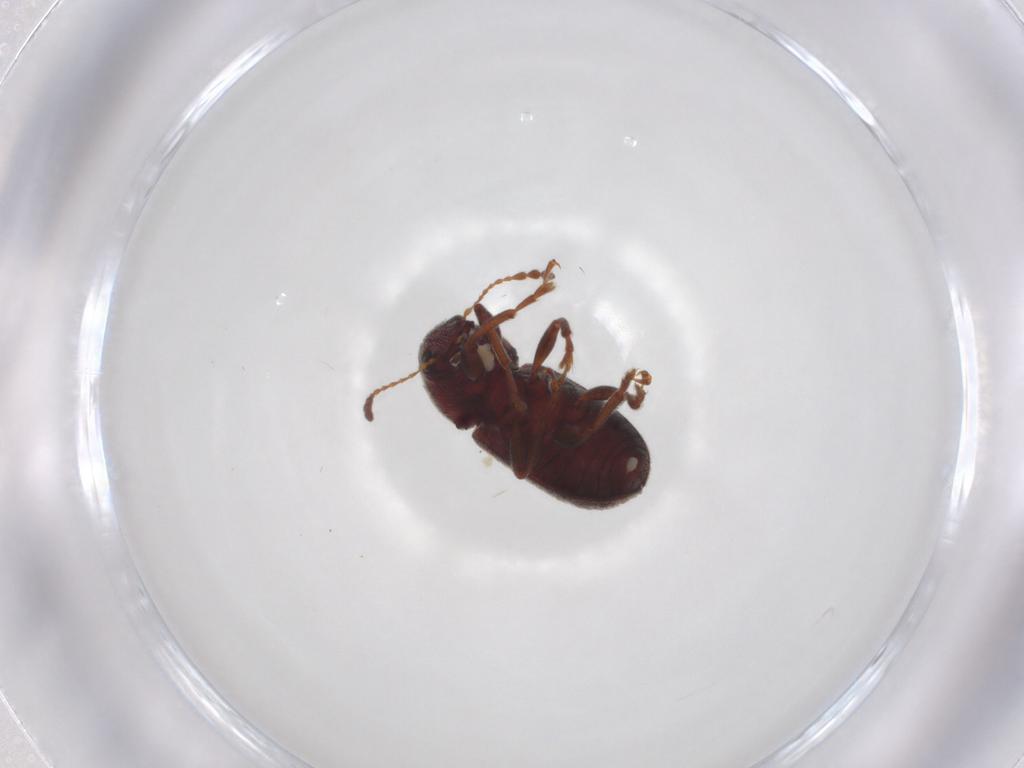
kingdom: Animalia
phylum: Arthropoda
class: Insecta
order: Coleoptera
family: Anthribidae
